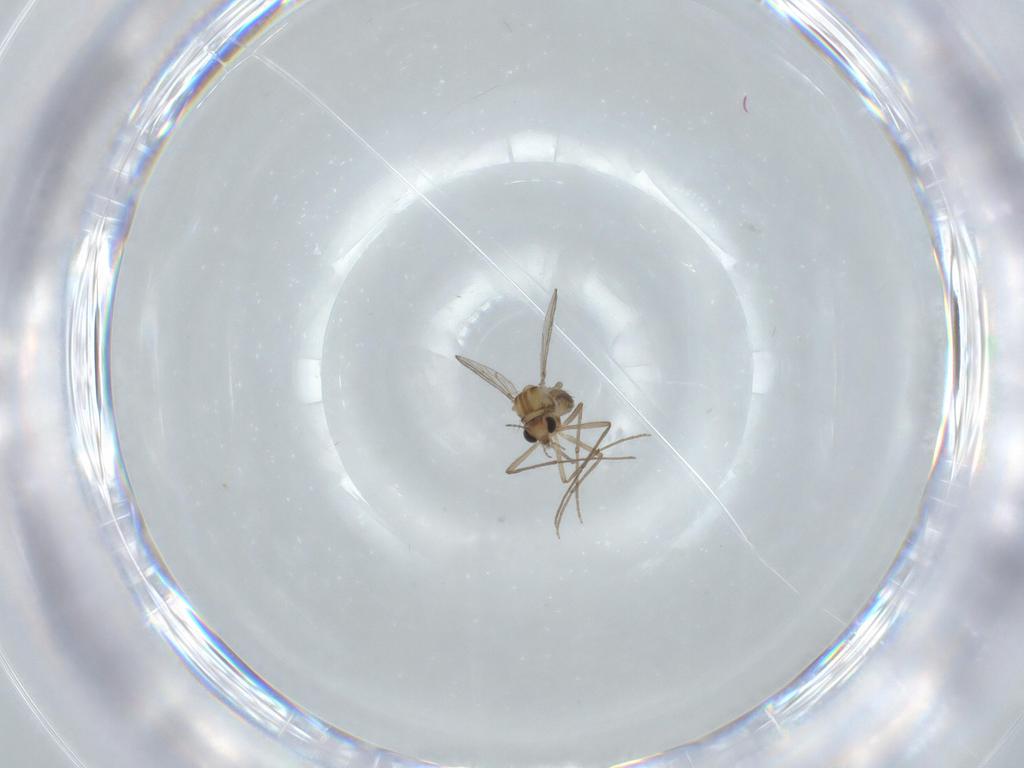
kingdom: Animalia
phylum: Arthropoda
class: Insecta
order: Diptera
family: Chironomidae
